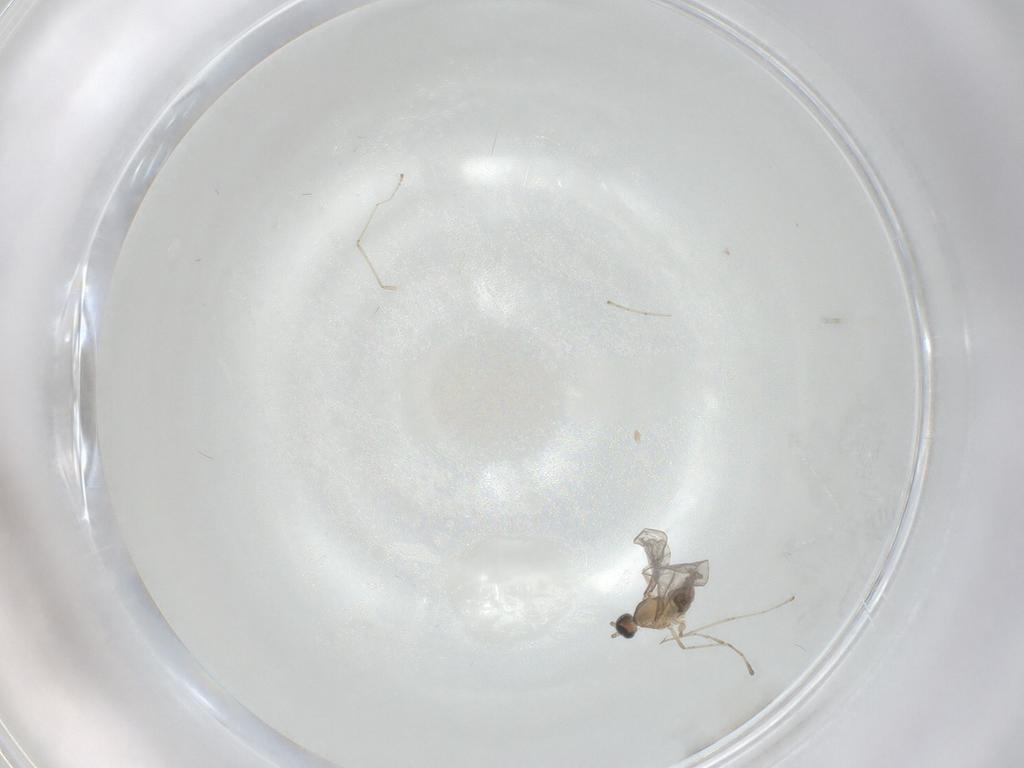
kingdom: Animalia
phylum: Arthropoda
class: Insecta
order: Diptera
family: Cecidomyiidae
